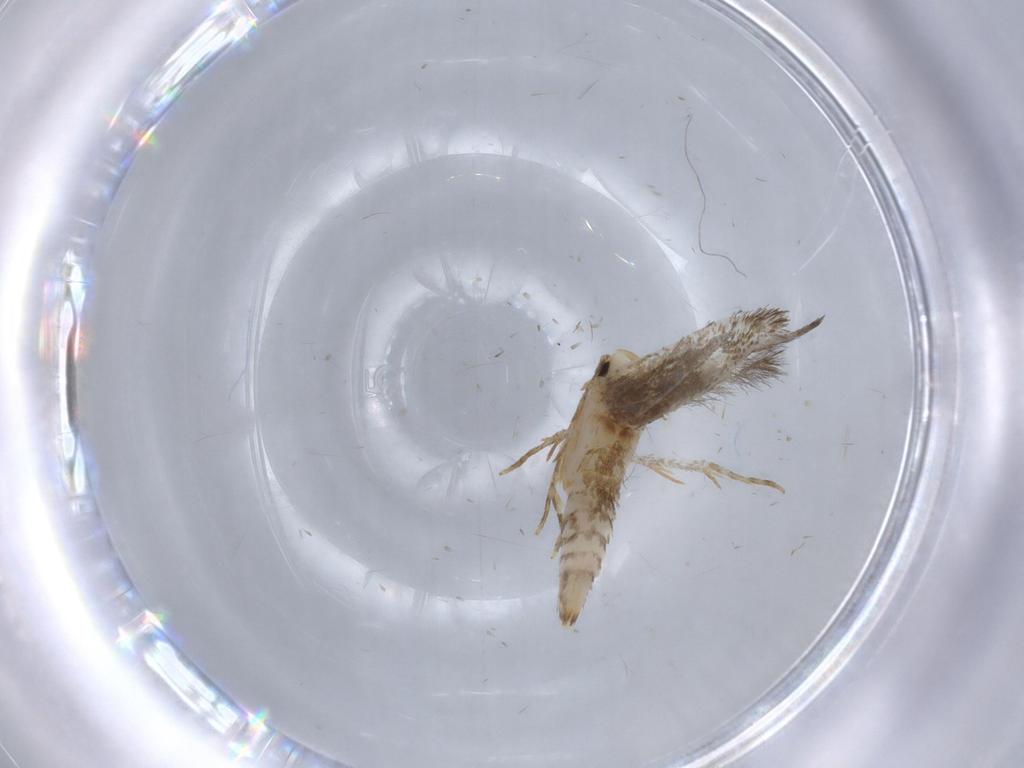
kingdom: Animalia
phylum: Arthropoda
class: Insecta
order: Lepidoptera
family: Tineidae
